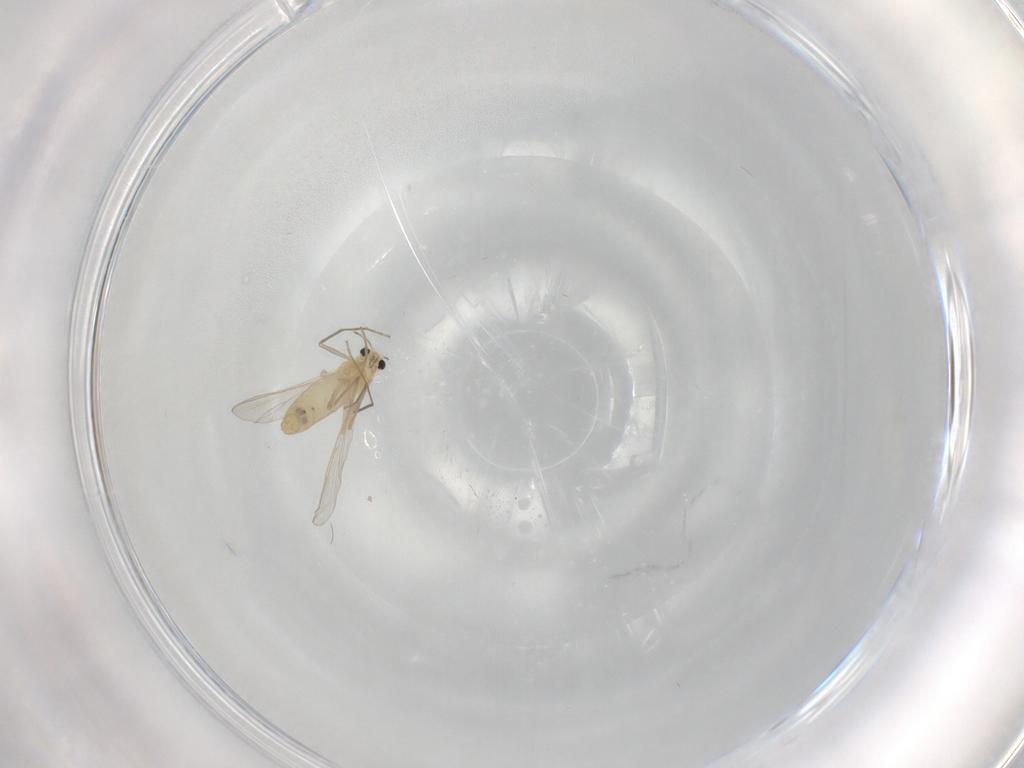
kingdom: Animalia
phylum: Arthropoda
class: Insecta
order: Diptera
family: Chironomidae
